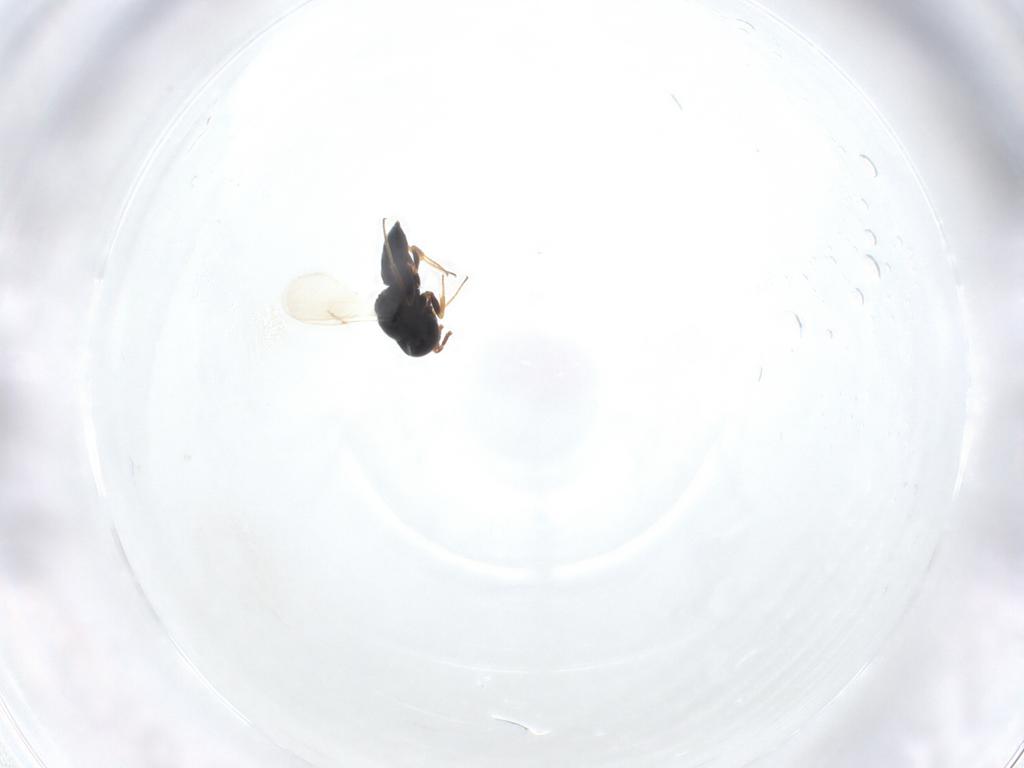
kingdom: Animalia
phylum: Arthropoda
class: Insecta
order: Hymenoptera
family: Scelionidae
